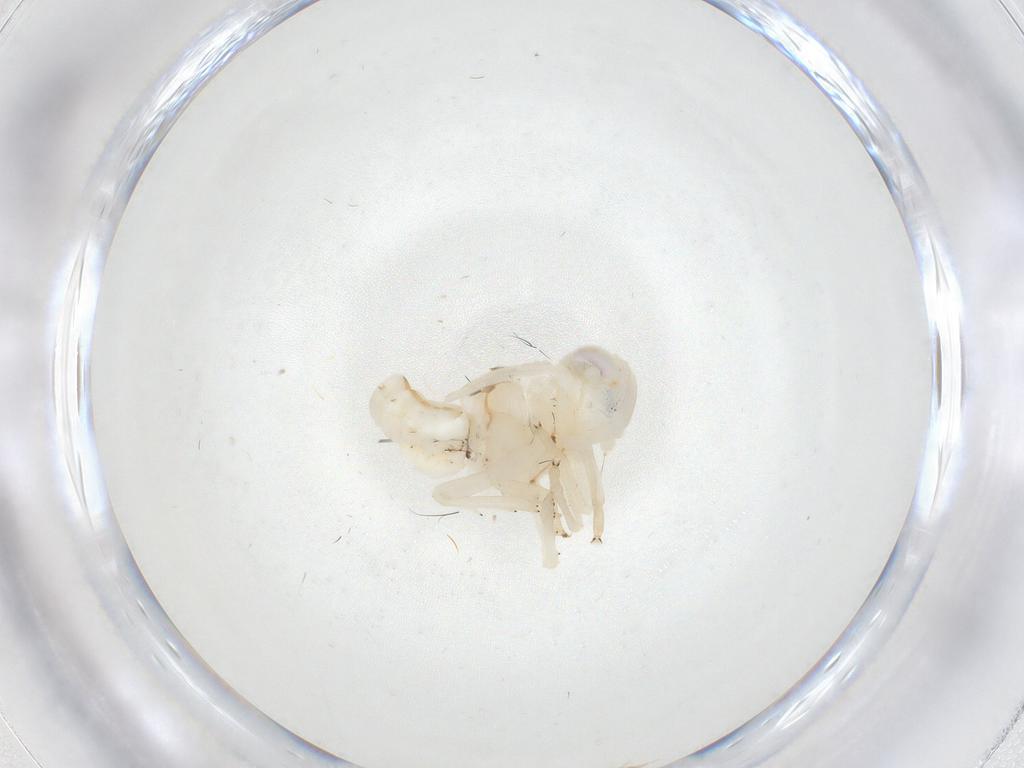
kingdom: Animalia
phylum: Arthropoda
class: Insecta
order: Hemiptera
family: Nogodinidae
